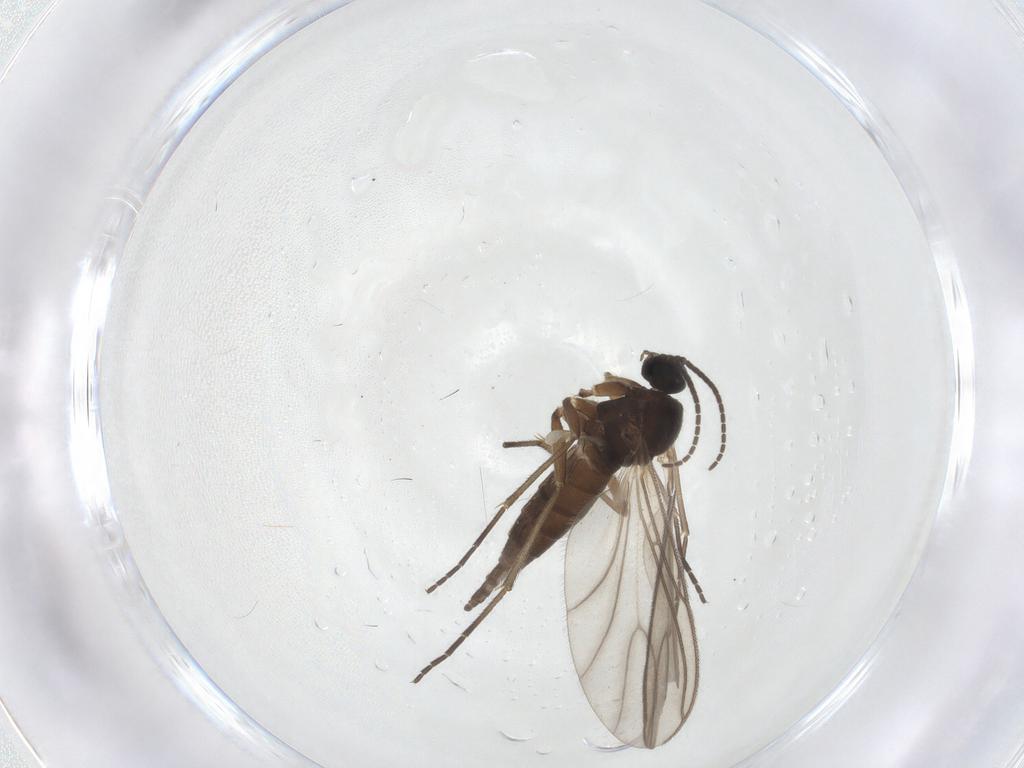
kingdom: Animalia
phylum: Arthropoda
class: Insecta
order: Diptera
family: Sciaridae
